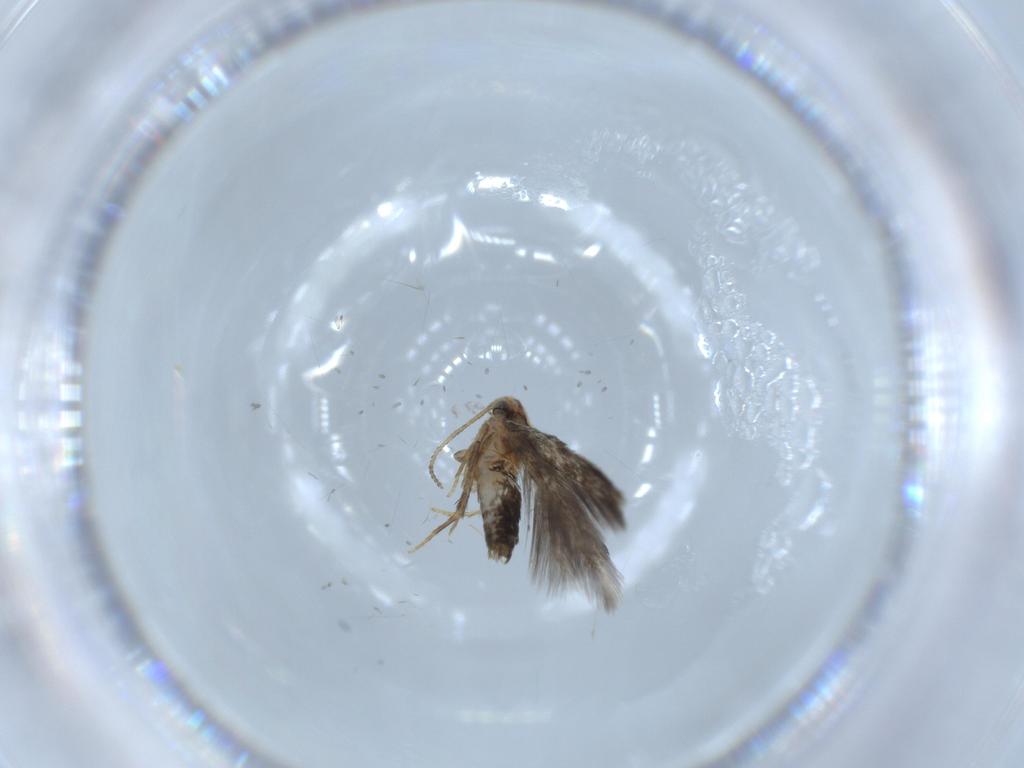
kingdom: Animalia
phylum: Arthropoda
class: Insecta
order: Lepidoptera
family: Nepticulidae
